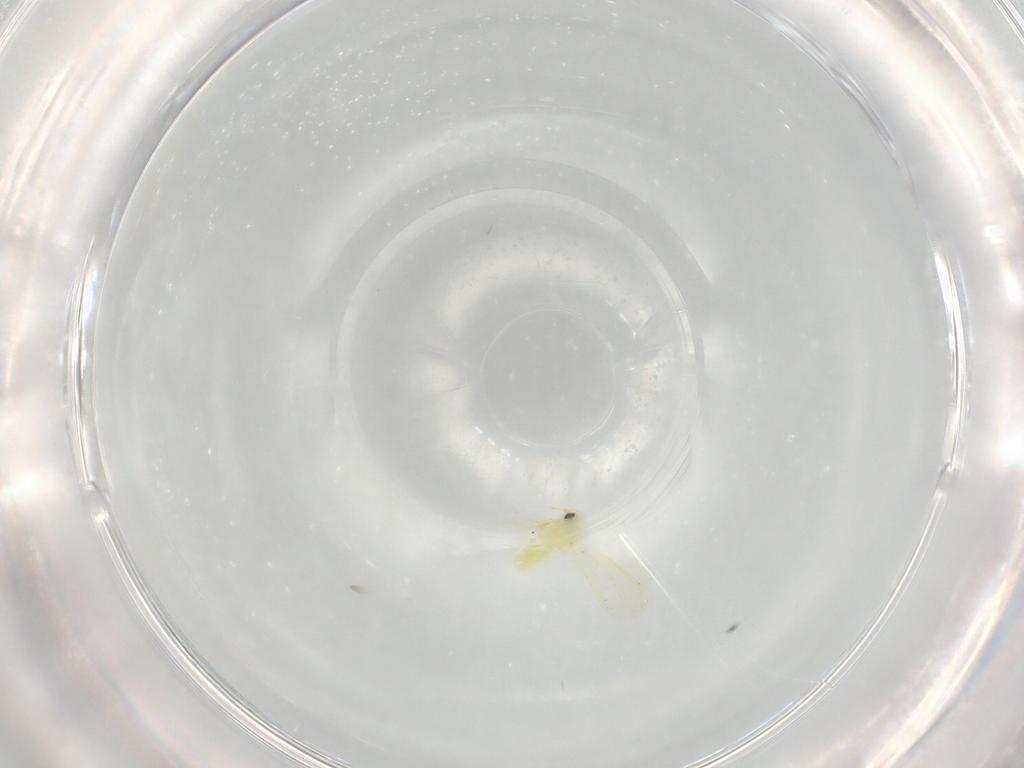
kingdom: Animalia
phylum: Arthropoda
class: Insecta
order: Hemiptera
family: Aleyrodidae
